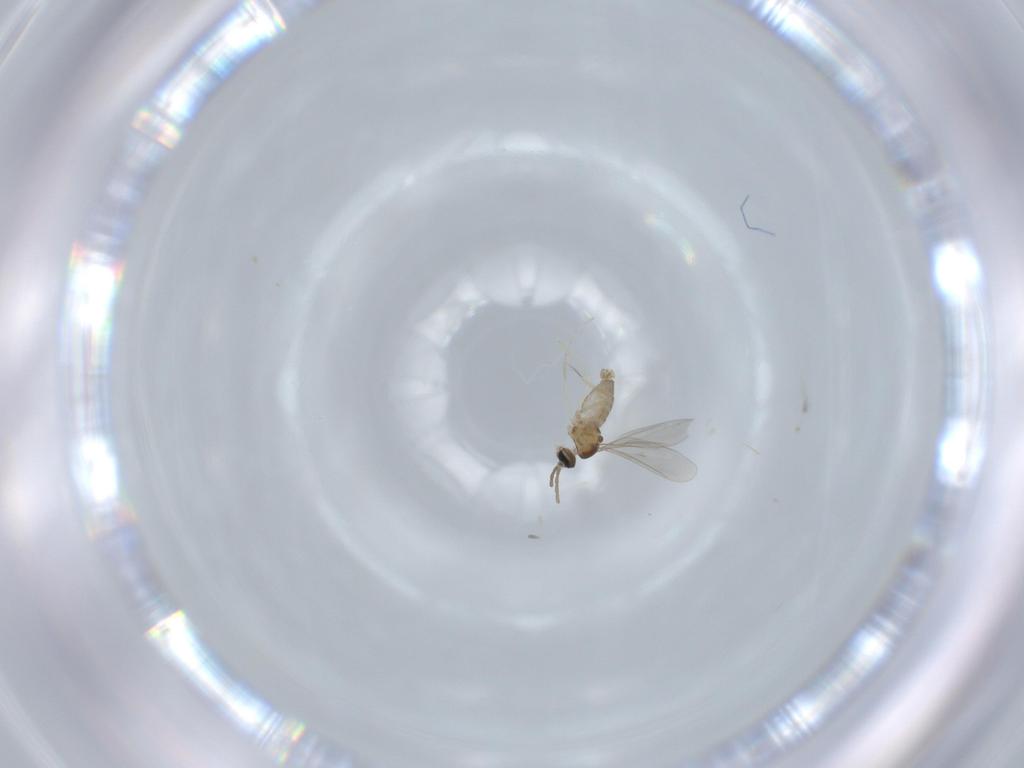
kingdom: Animalia
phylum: Arthropoda
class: Insecta
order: Diptera
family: Cecidomyiidae
